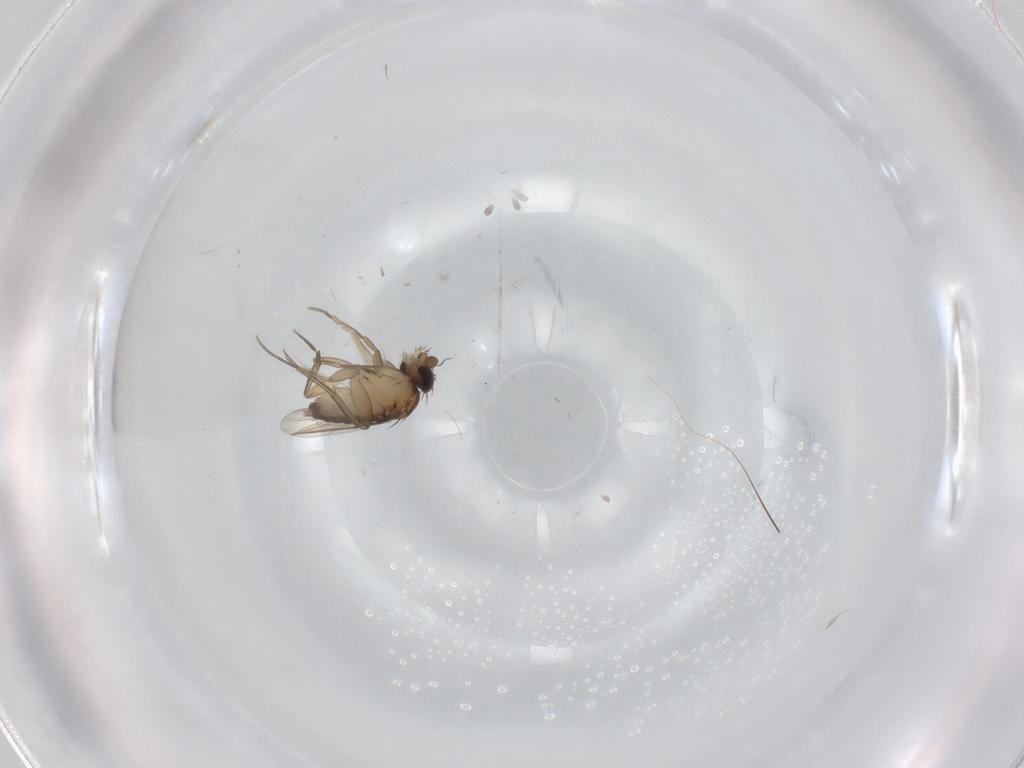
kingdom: Animalia
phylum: Arthropoda
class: Insecta
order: Diptera
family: Phoridae
